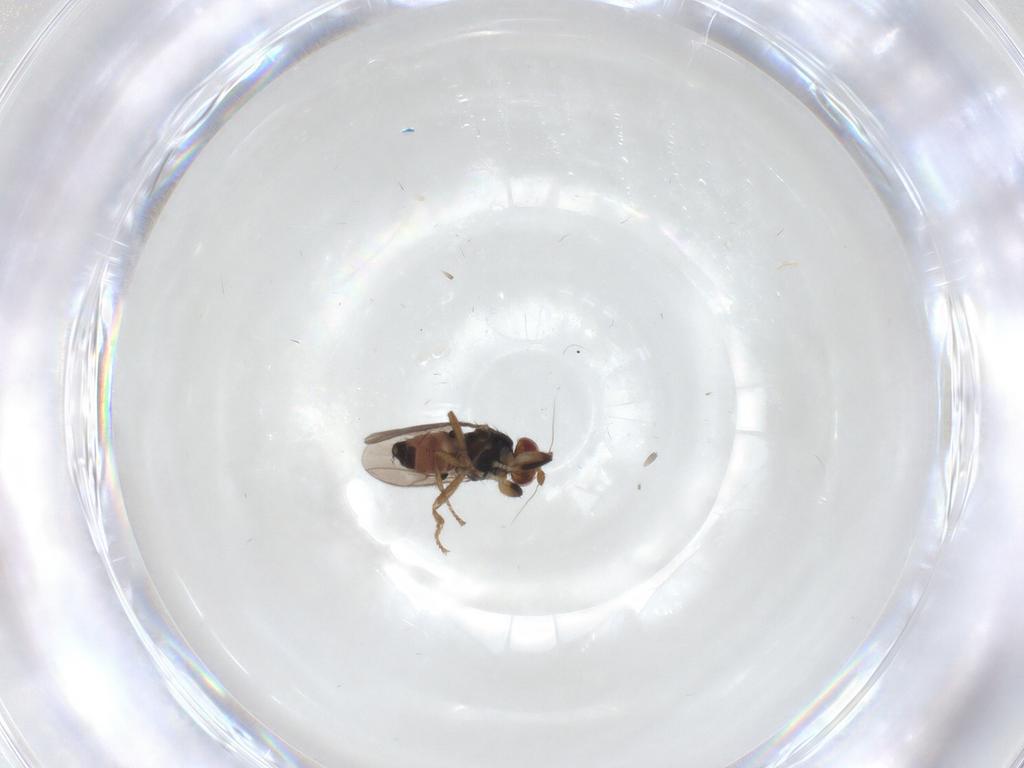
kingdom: Animalia
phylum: Arthropoda
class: Insecta
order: Diptera
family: Sphaeroceridae
